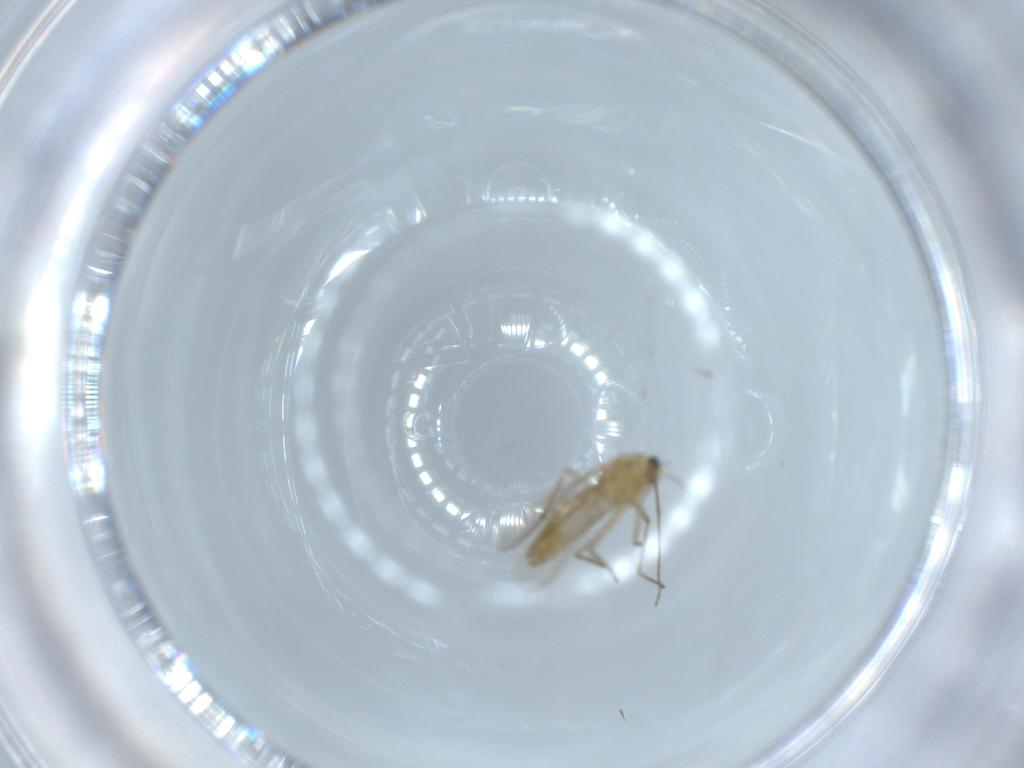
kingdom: Animalia
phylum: Arthropoda
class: Insecta
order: Diptera
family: Chironomidae
